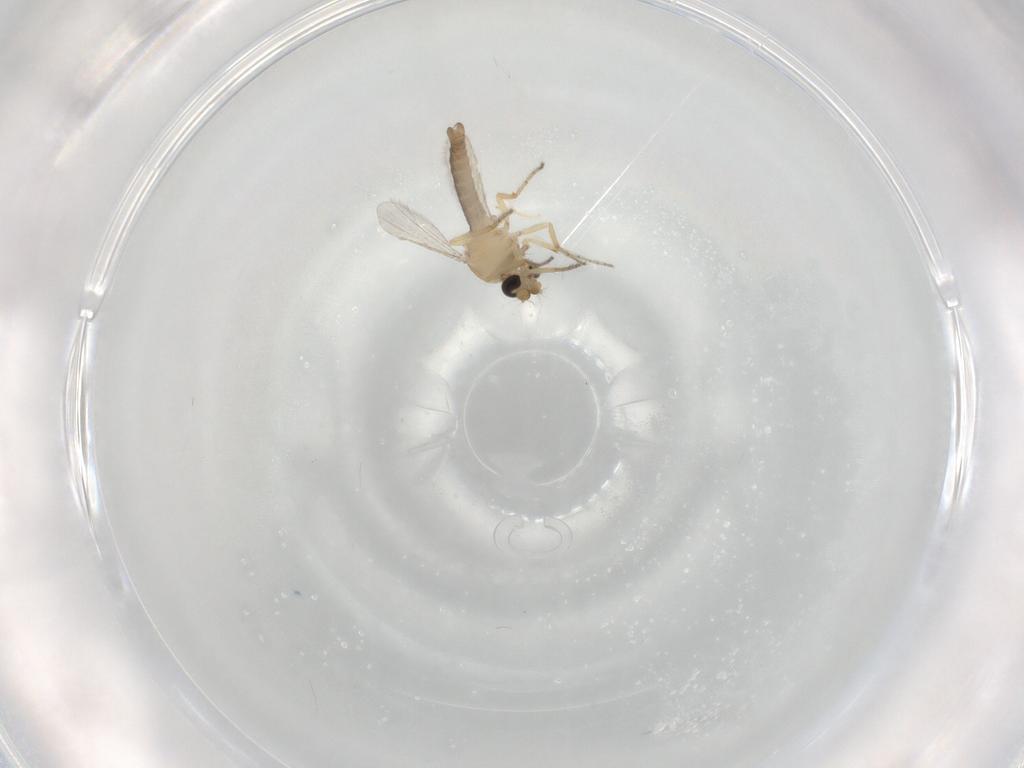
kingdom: Animalia
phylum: Arthropoda
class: Insecta
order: Diptera
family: Ceratopogonidae
